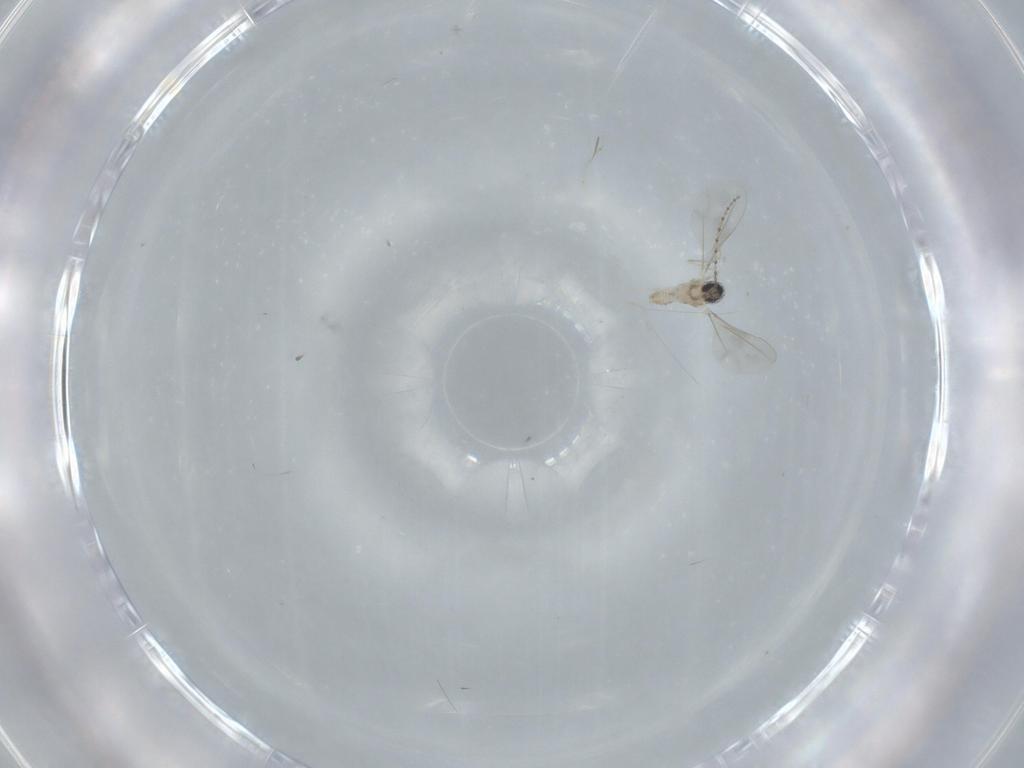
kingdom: Animalia
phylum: Arthropoda
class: Insecta
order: Diptera
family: Cecidomyiidae
